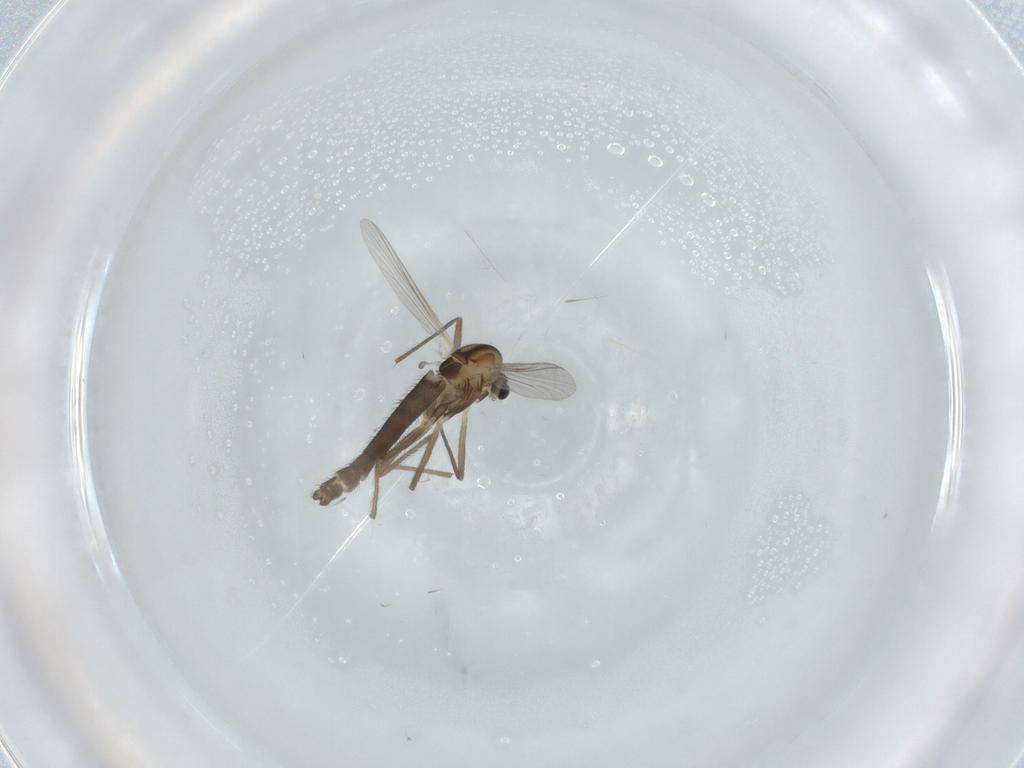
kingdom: Animalia
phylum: Arthropoda
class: Insecta
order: Diptera
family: Chironomidae
